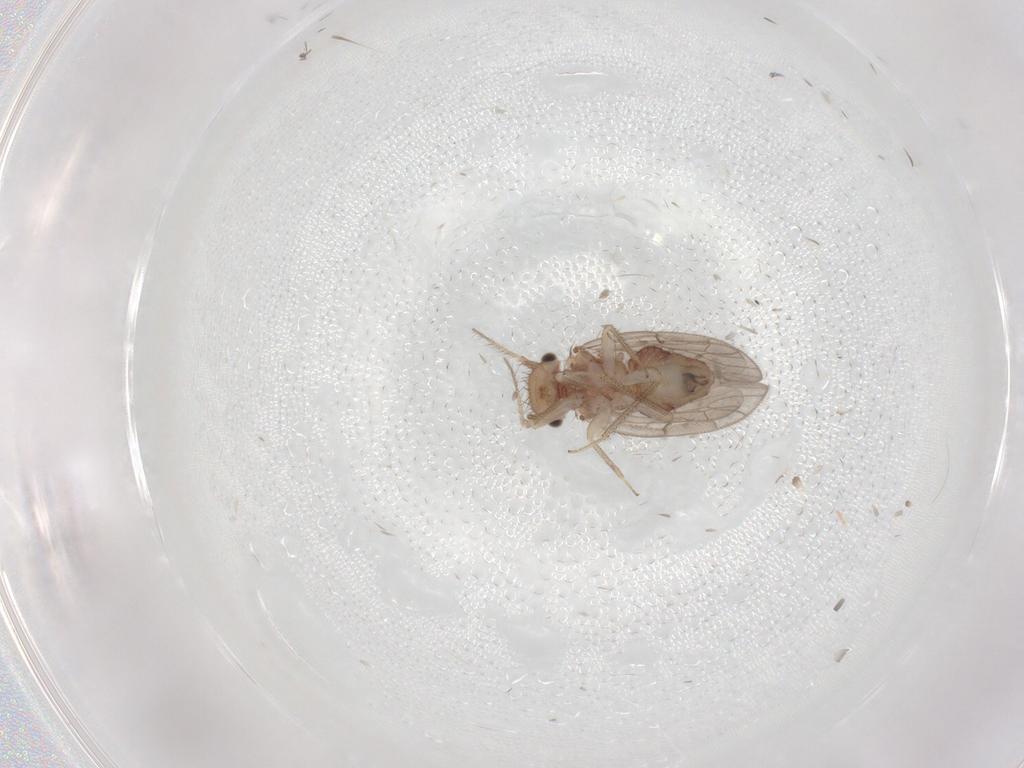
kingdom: Animalia
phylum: Arthropoda
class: Insecta
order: Psocodea
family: Ectopsocidae
